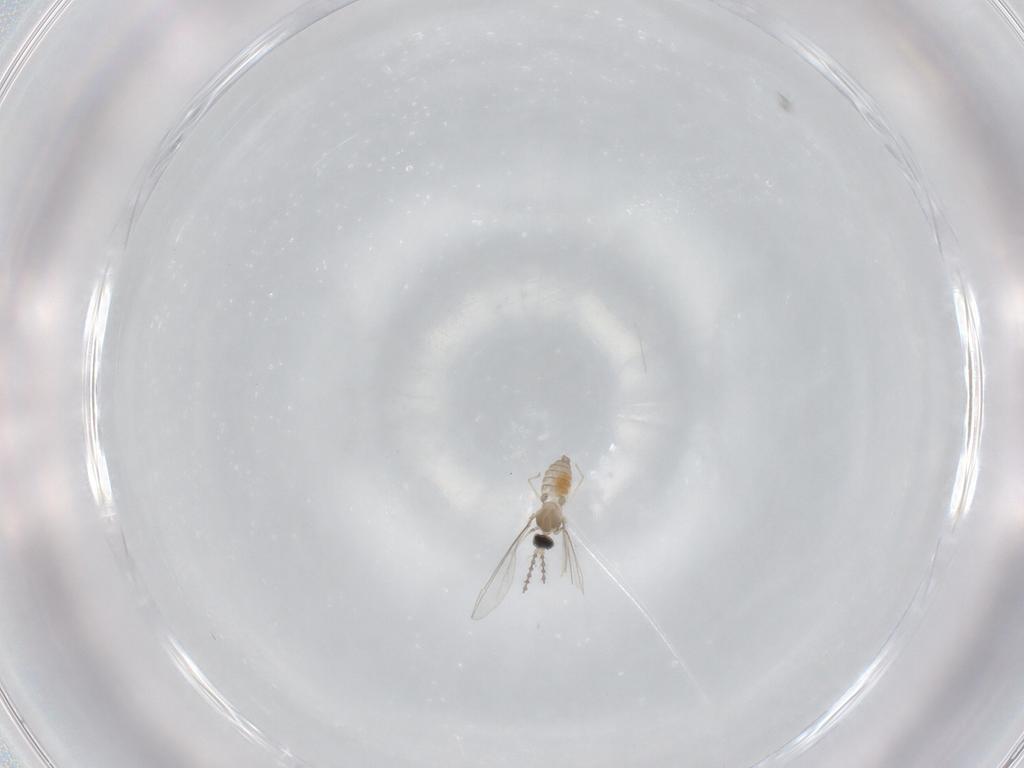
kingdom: Animalia
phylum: Arthropoda
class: Insecta
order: Diptera
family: Cecidomyiidae
